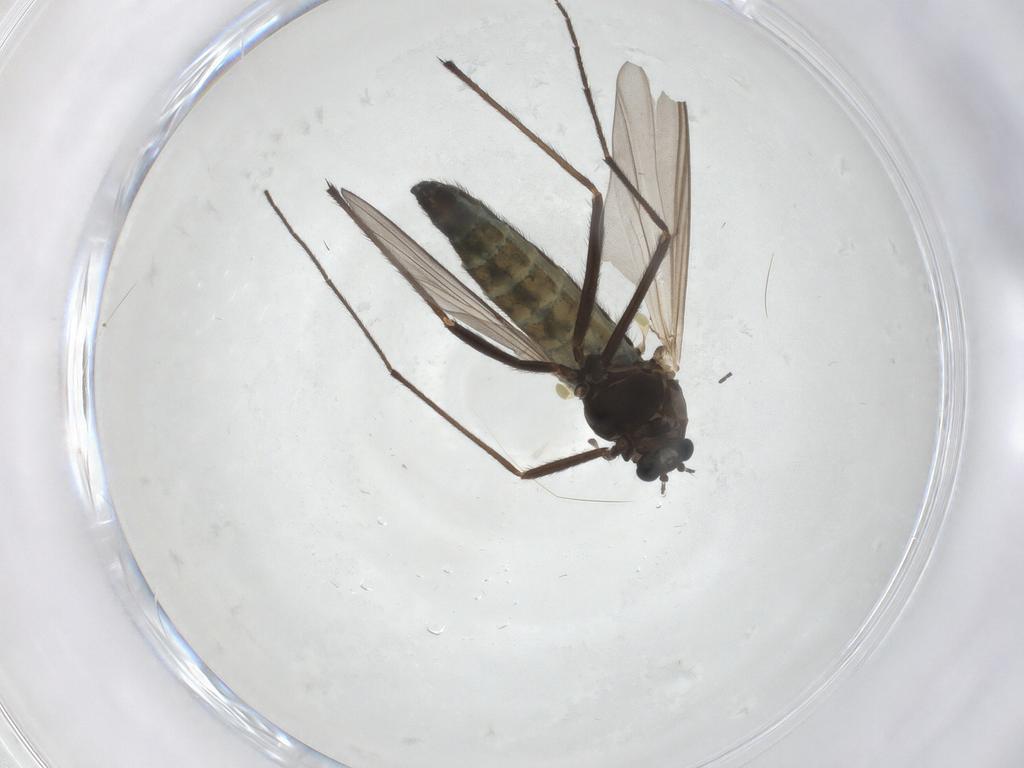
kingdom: Animalia
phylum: Arthropoda
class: Insecta
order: Diptera
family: Chironomidae
